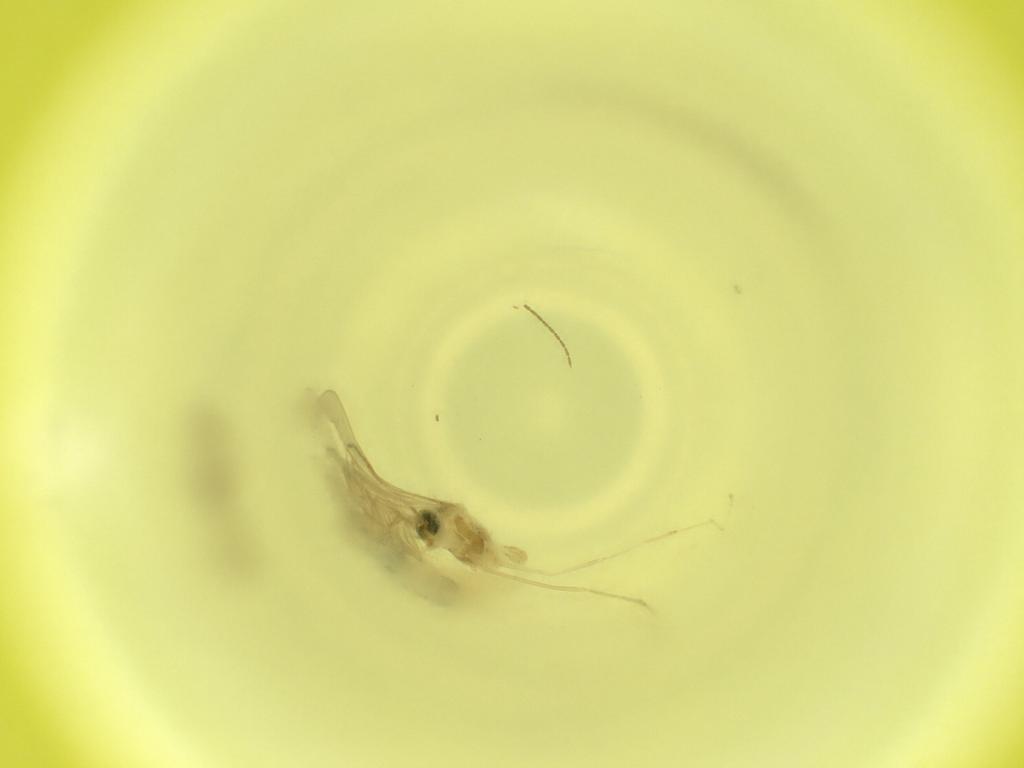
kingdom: Animalia
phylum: Arthropoda
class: Insecta
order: Diptera
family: Cecidomyiidae
